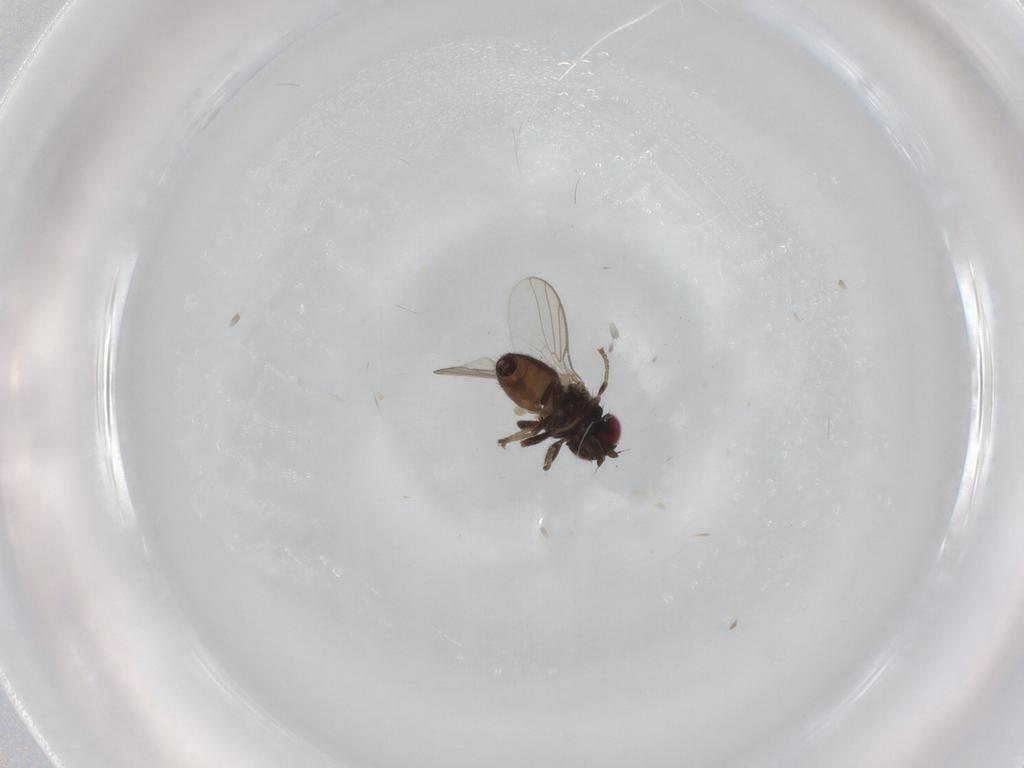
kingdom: Animalia
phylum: Arthropoda
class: Insecta
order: Diptera
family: Chloropidae
